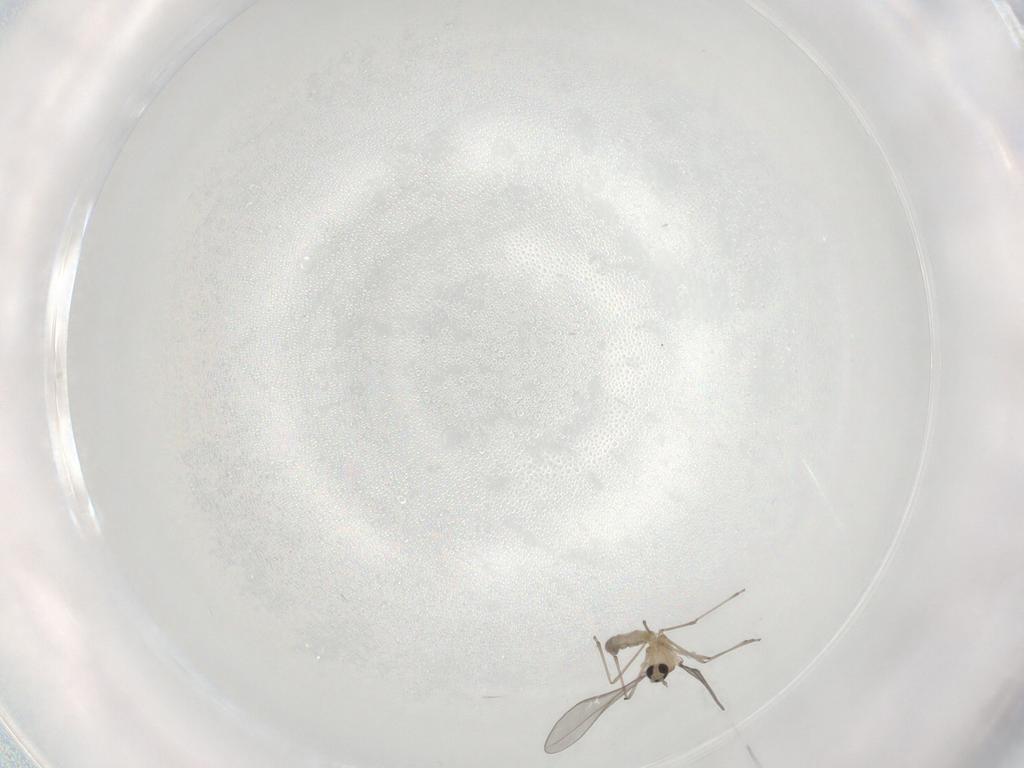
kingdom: Animalia
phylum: Arthropoda
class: Insecta
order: Diptera
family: Cecidomyiidae
